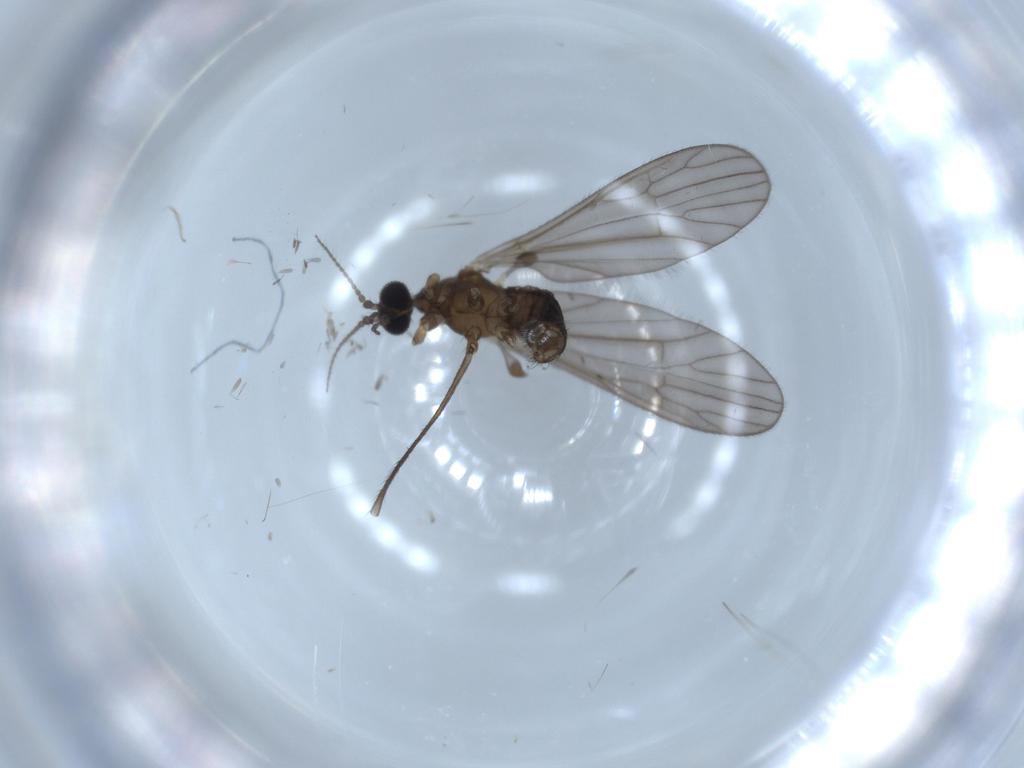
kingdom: Animalia
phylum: Arthropoda
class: Insecta
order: Diptera
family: Limoniidae
